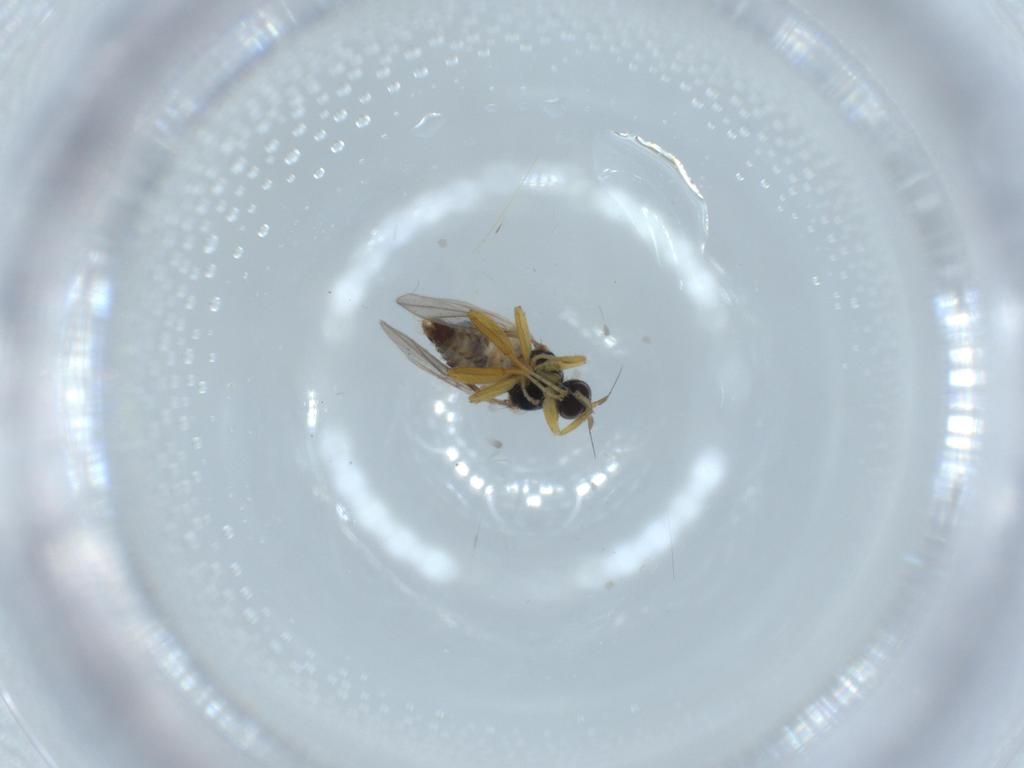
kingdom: Animalia
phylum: Arthropoda
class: Insecta
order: Diptera
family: Hybotidae
